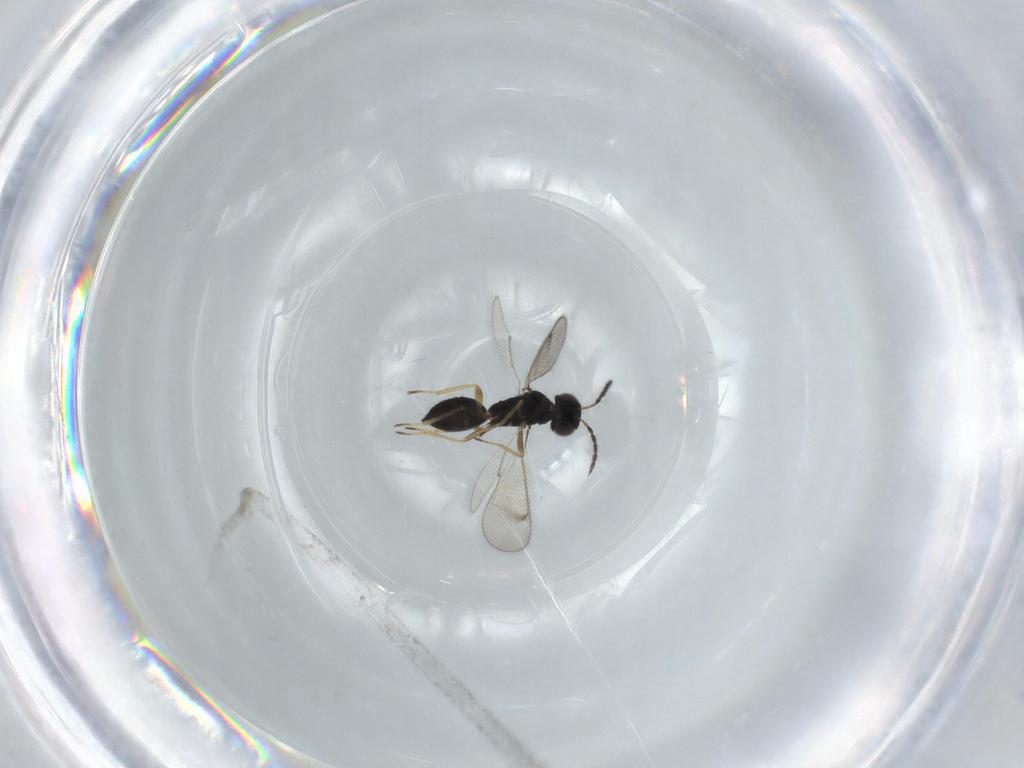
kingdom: Animalia
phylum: Arthropoda
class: Insecta
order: Hymenoptera
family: Eulophidae
